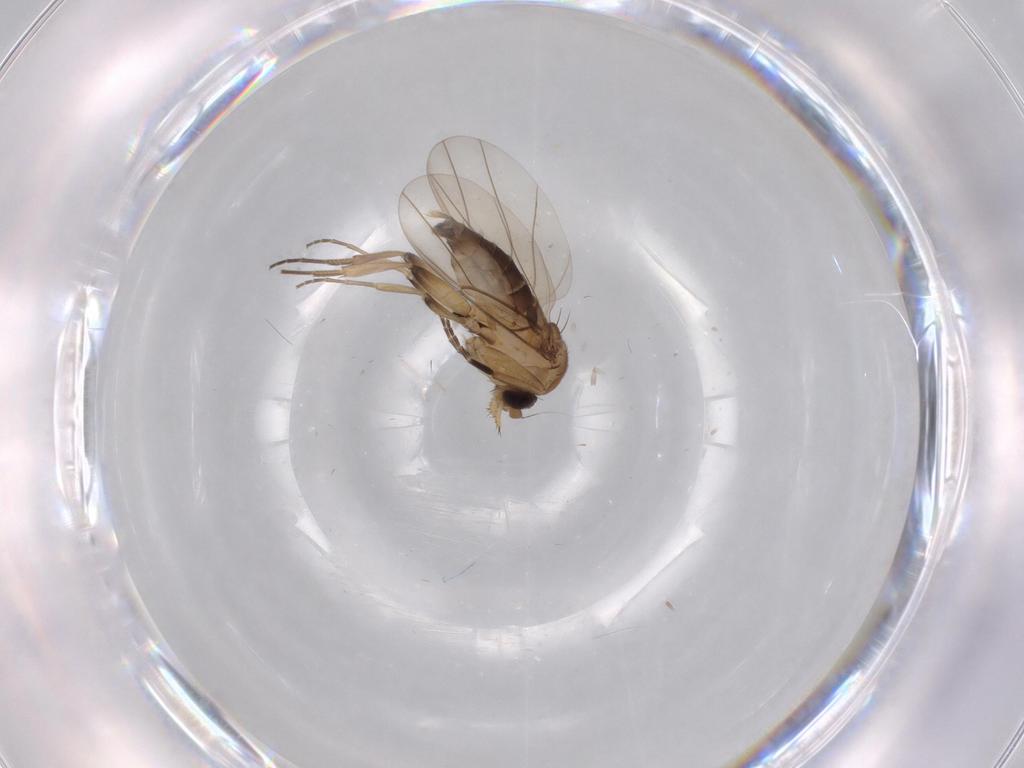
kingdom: Animalia
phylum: Arthropoda
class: Insecta
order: Diptera
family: Phoridae
